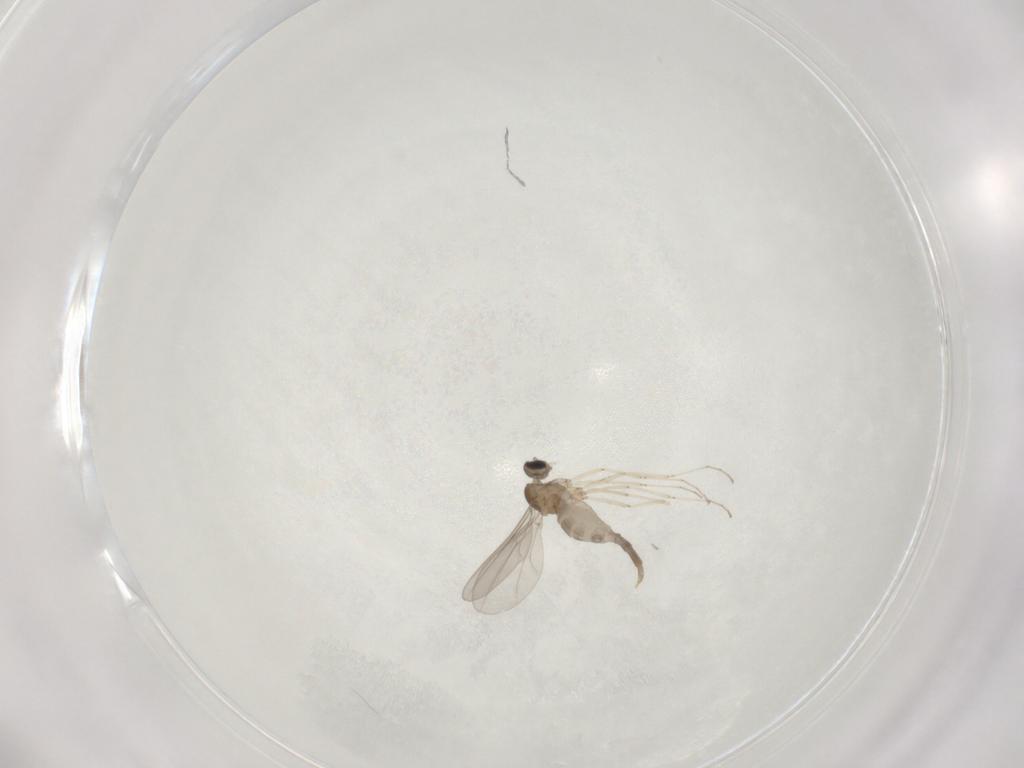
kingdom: Animalia
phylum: Arthropoda
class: Insecta
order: Diptera
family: Cecidomyiidae
